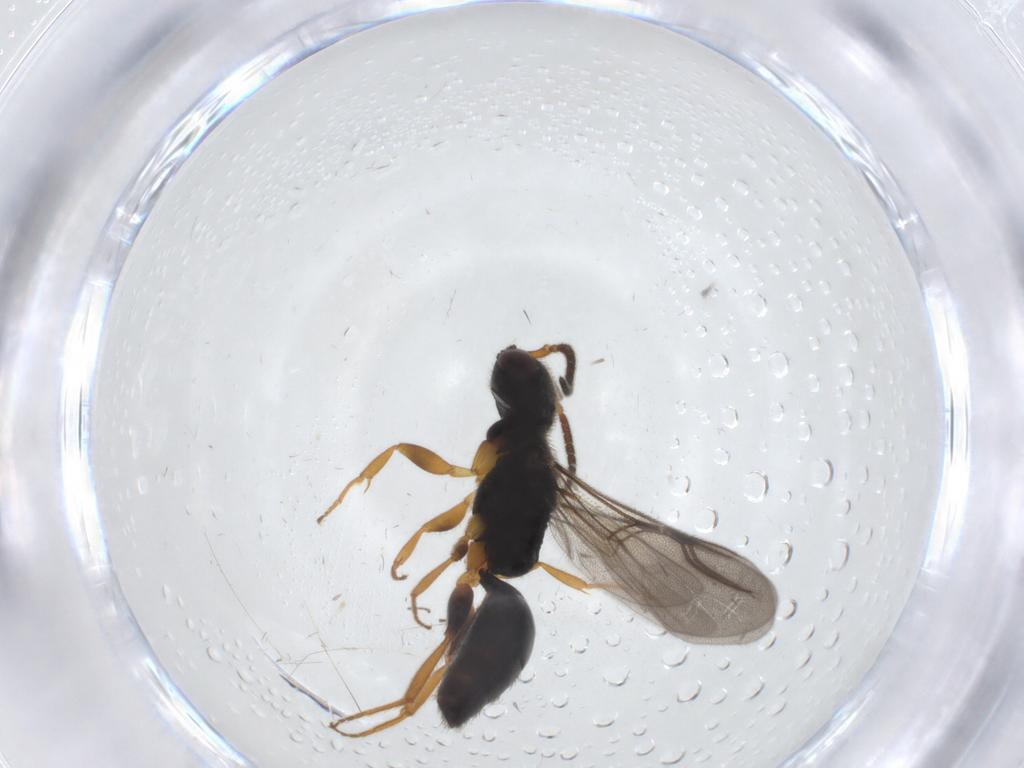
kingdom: Animalia
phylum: Arthropoda
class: Insecta
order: Hymenoptera
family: Bethylidae
